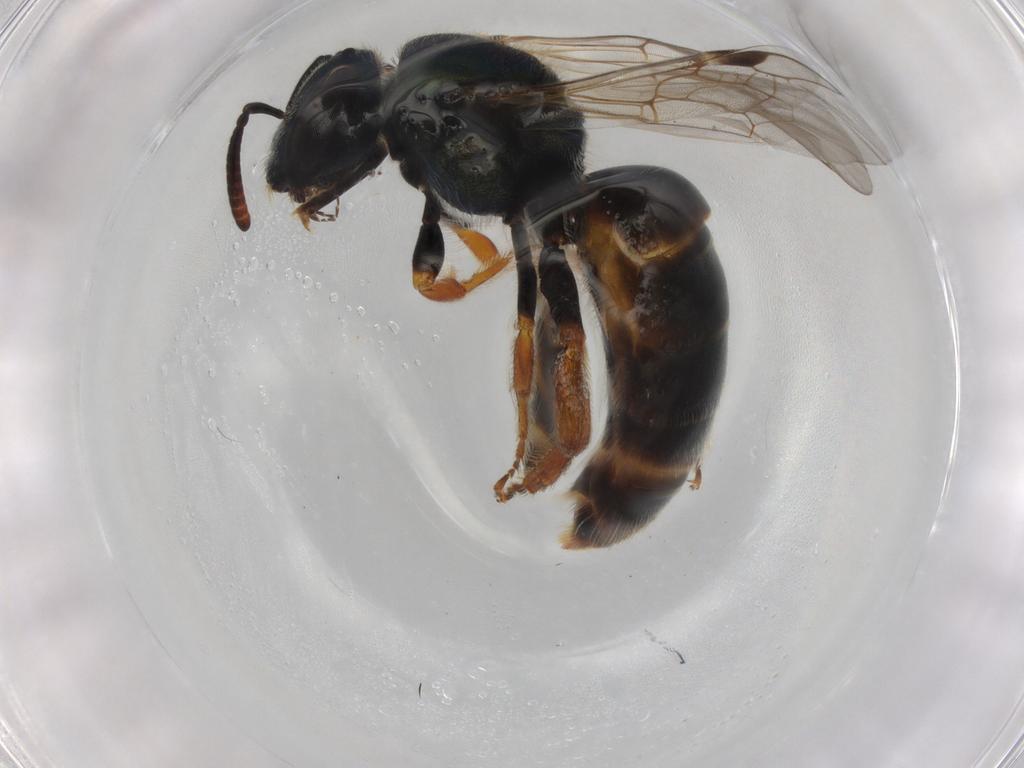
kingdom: Animalia
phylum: Arthropoda
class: Insecta
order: Hymenoptera
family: Halictidae
